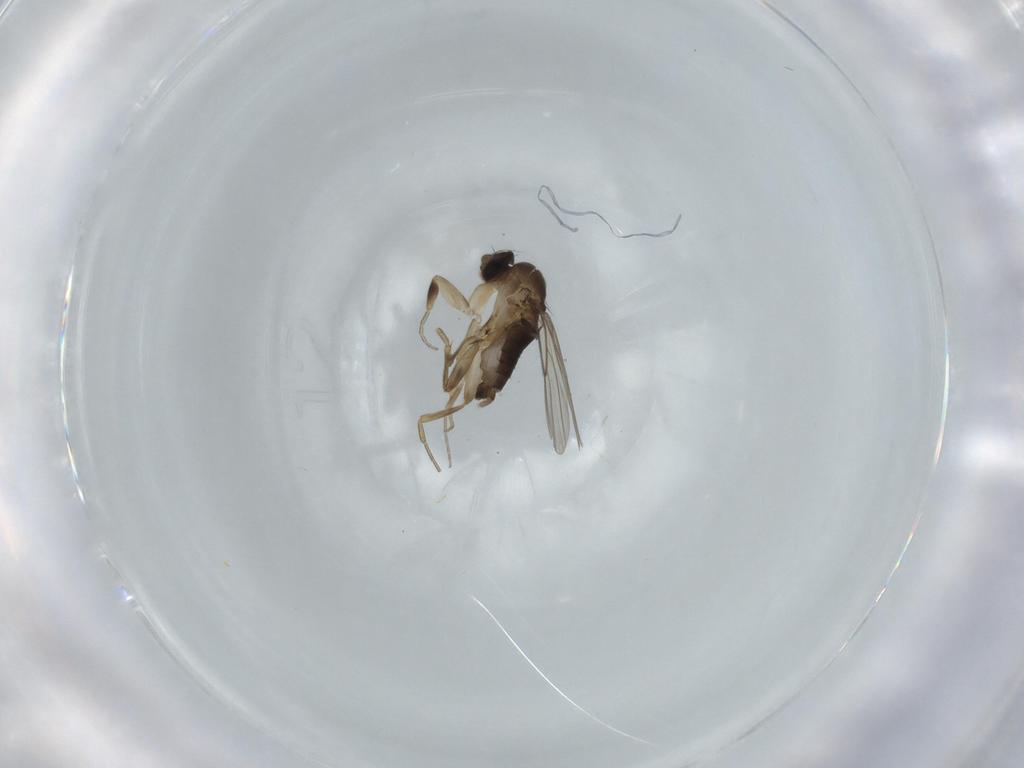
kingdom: Animalia
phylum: Arthropoda
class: Insecta
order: Diptera
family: Phoridae
